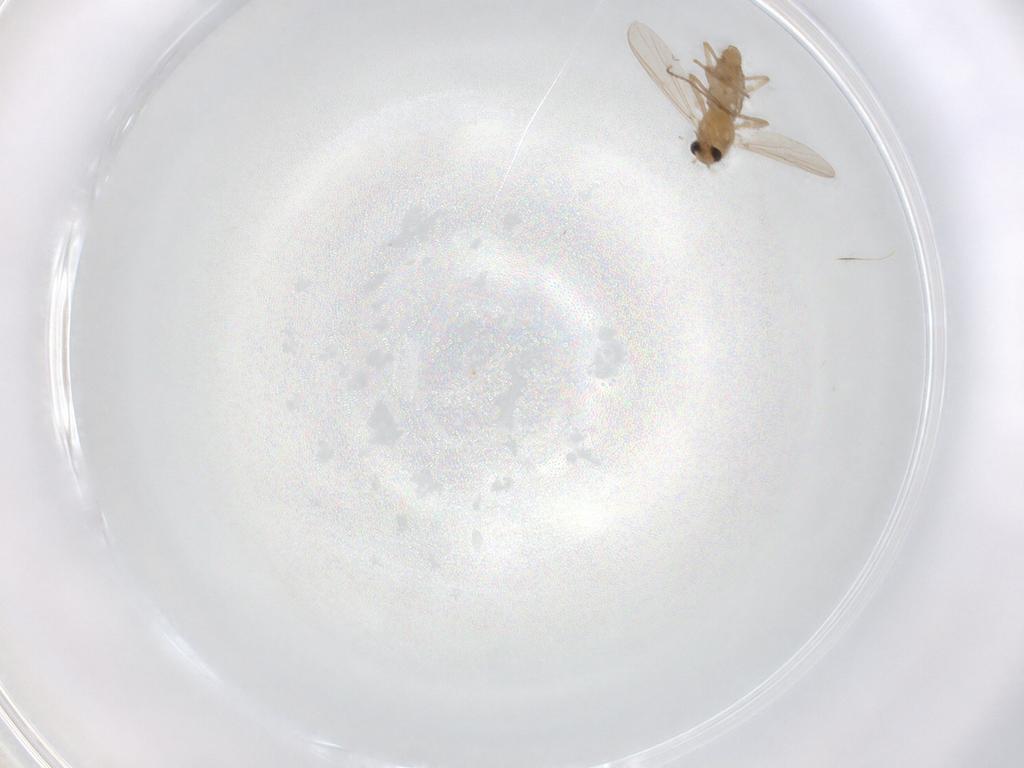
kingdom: Animalia
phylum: Arthropoda
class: Insecta
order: Diptera
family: Chironomidae
